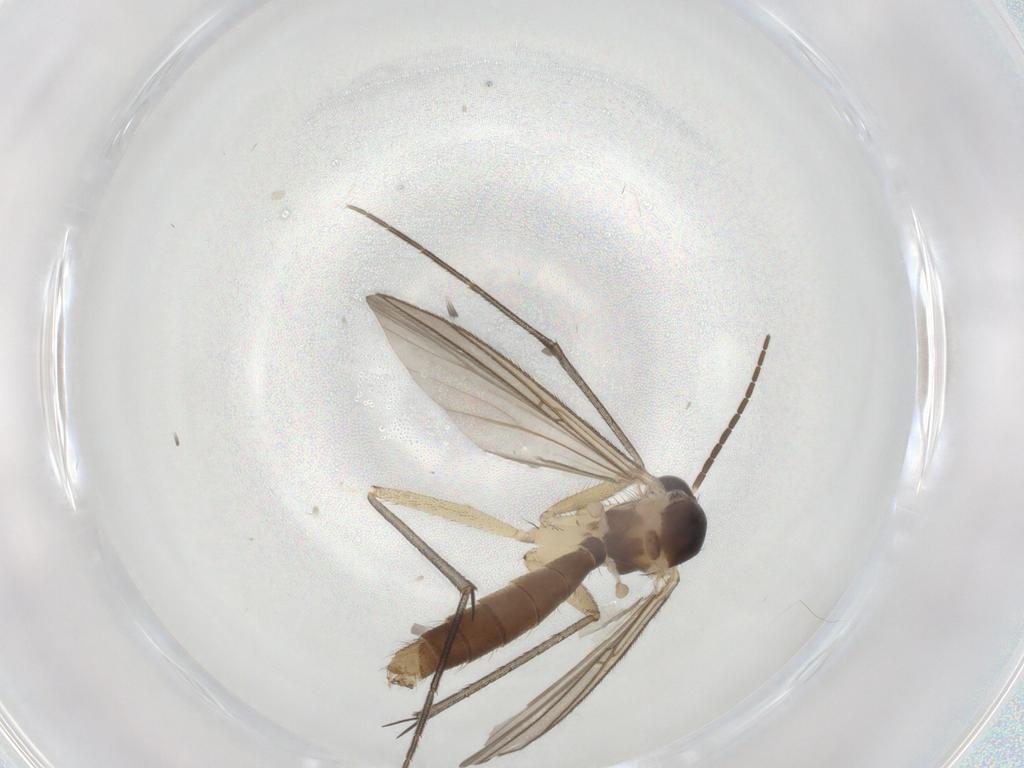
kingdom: Animalia
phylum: Arthropoda
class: Insecta
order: Diptera
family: Mycetophilidae
